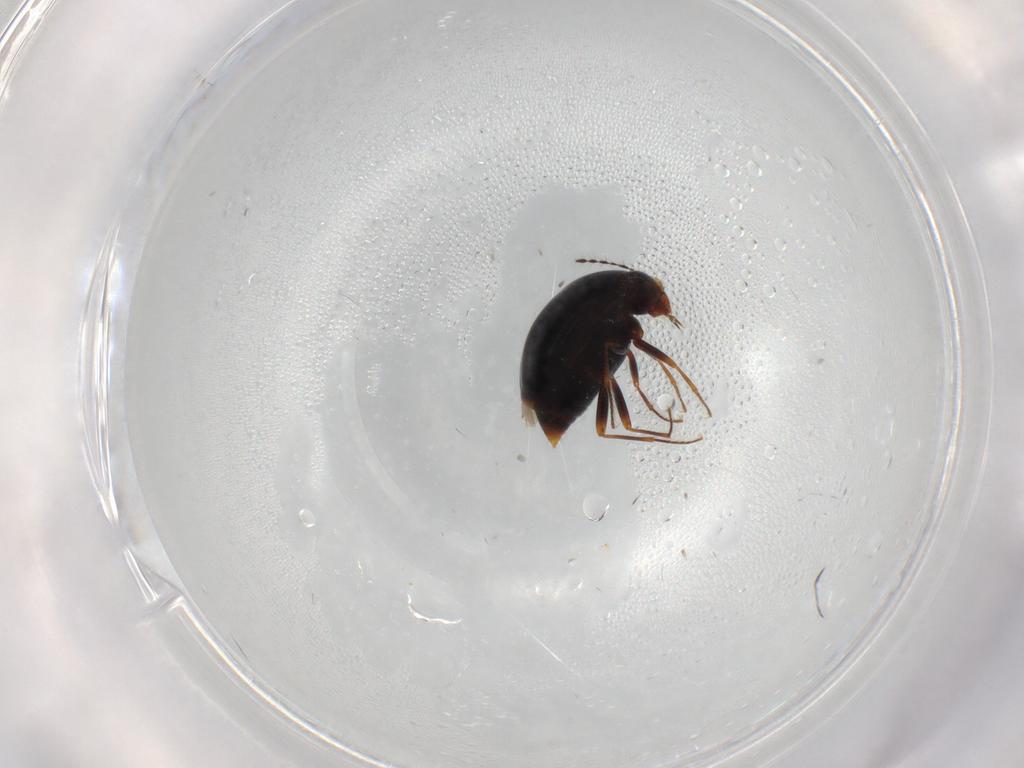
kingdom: Animalia
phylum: Arthropoda
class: Insecta
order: Coleoptera
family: Staphylinidae
